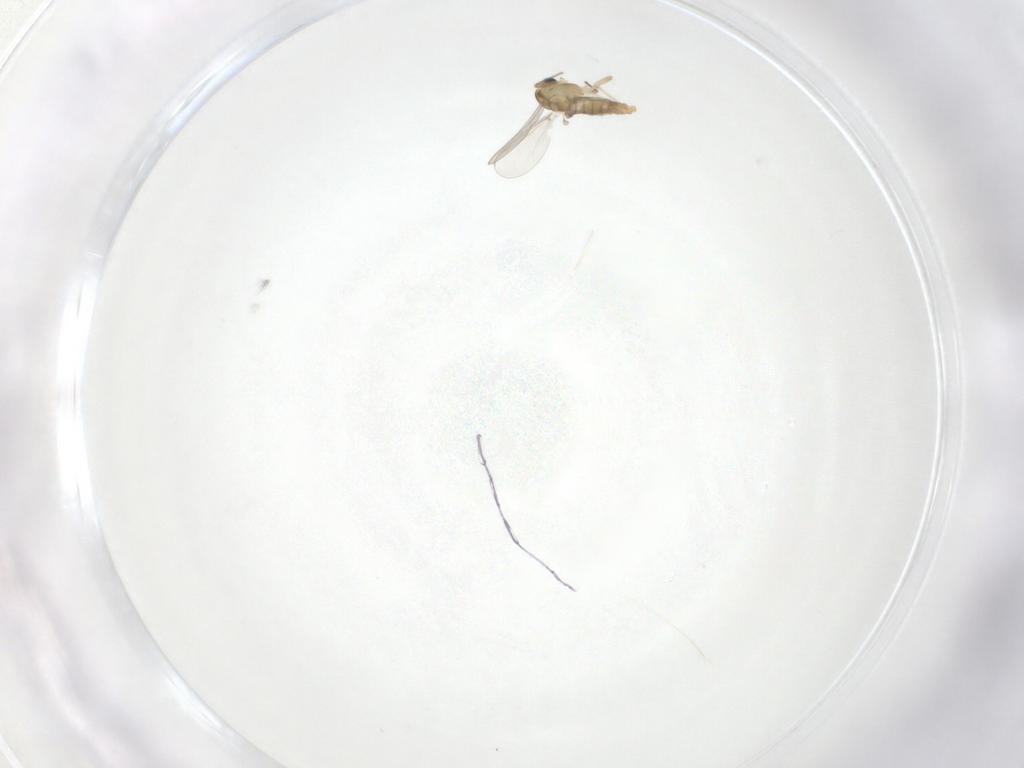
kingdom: Animalia
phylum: Arthropoda
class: Insecta
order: Diptera
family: Chironomidae
